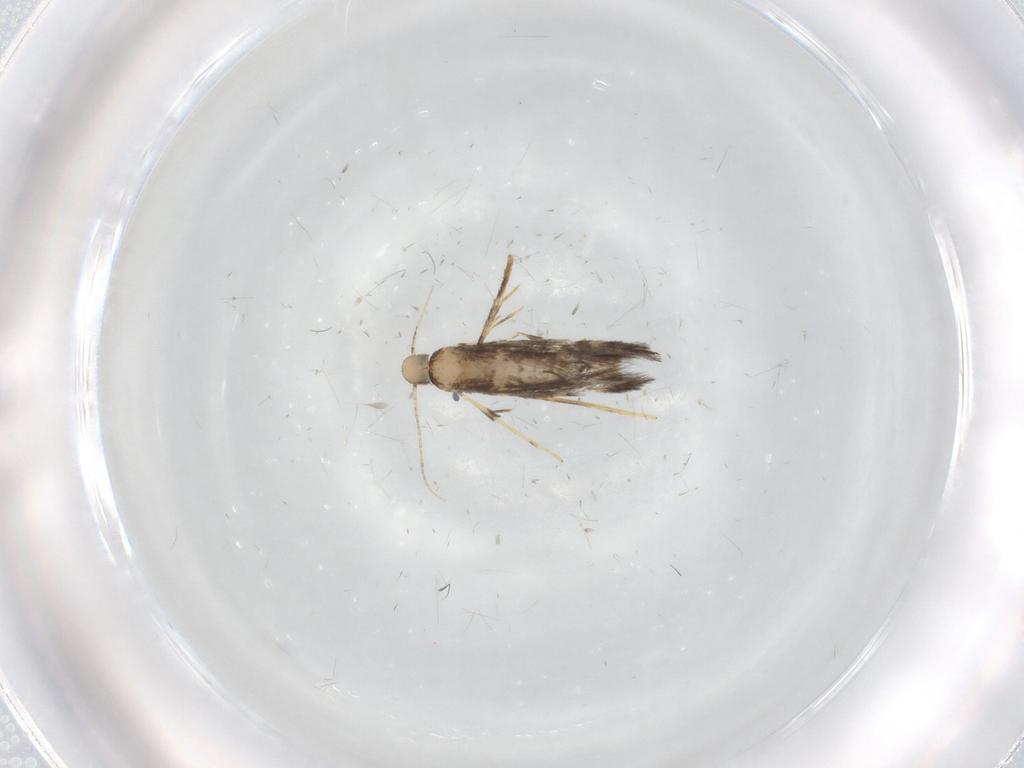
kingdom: Animalia
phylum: Arthropoda
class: Insecta
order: Lepidoptera
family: Gracillariidae
